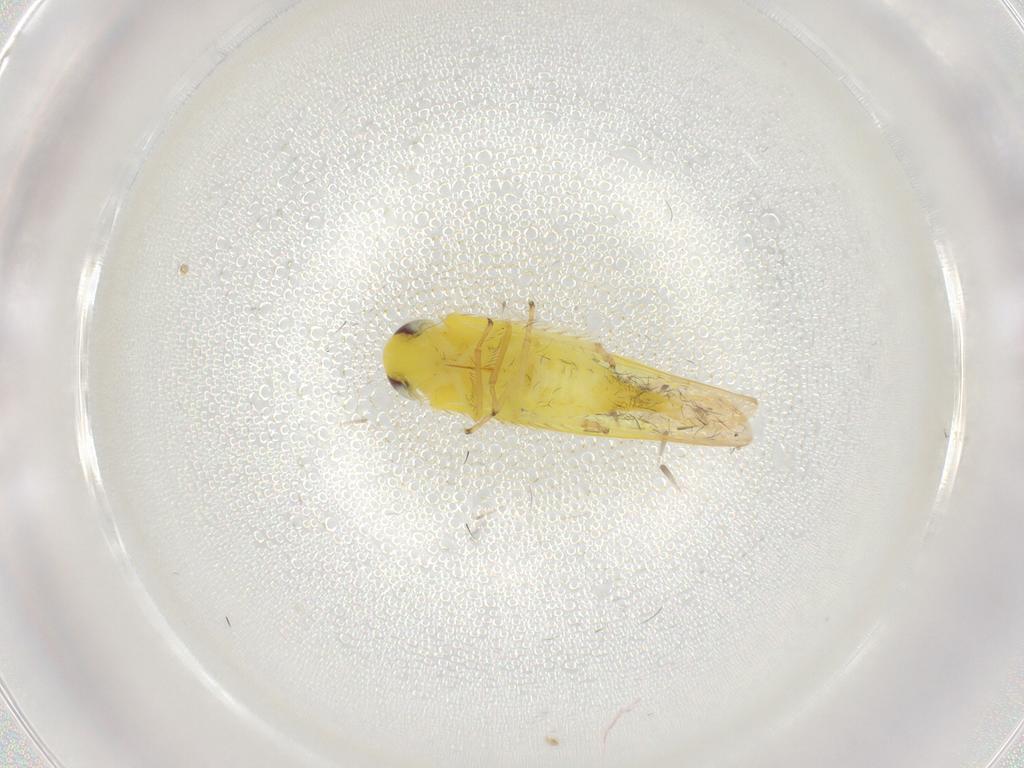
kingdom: Animalia
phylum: Arthropoda
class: Insecta
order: Hemiptera
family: Cicadellidae
